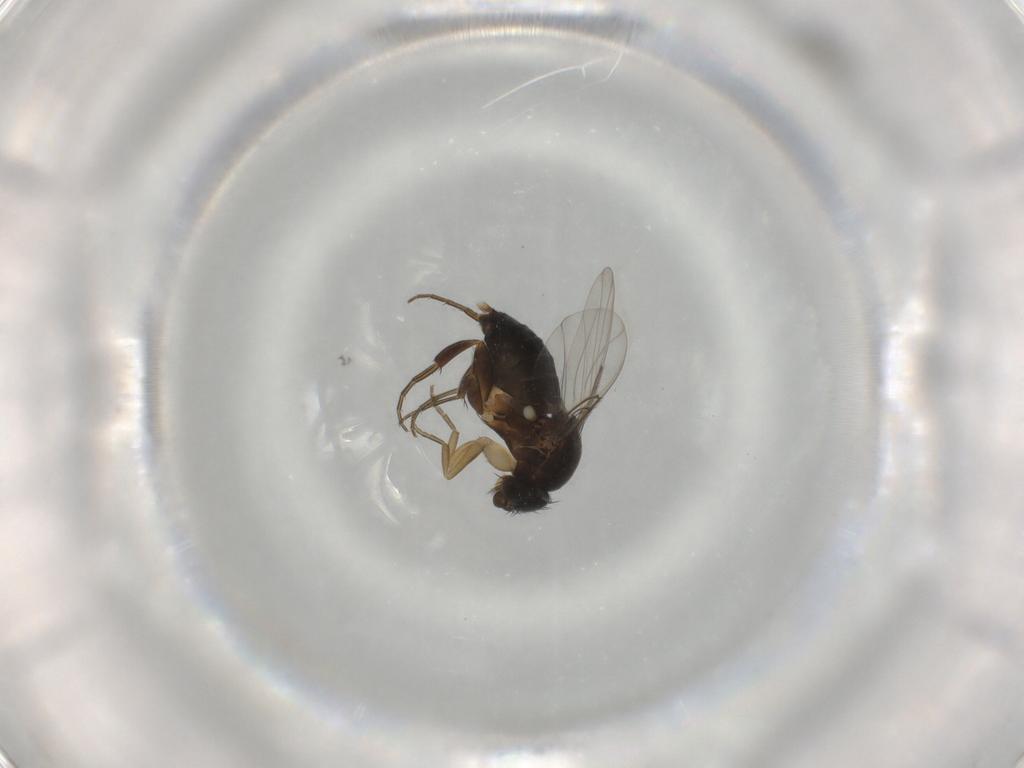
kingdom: Animalia
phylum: Arthropoda
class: Insecta
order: Diptera
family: Phoridae
